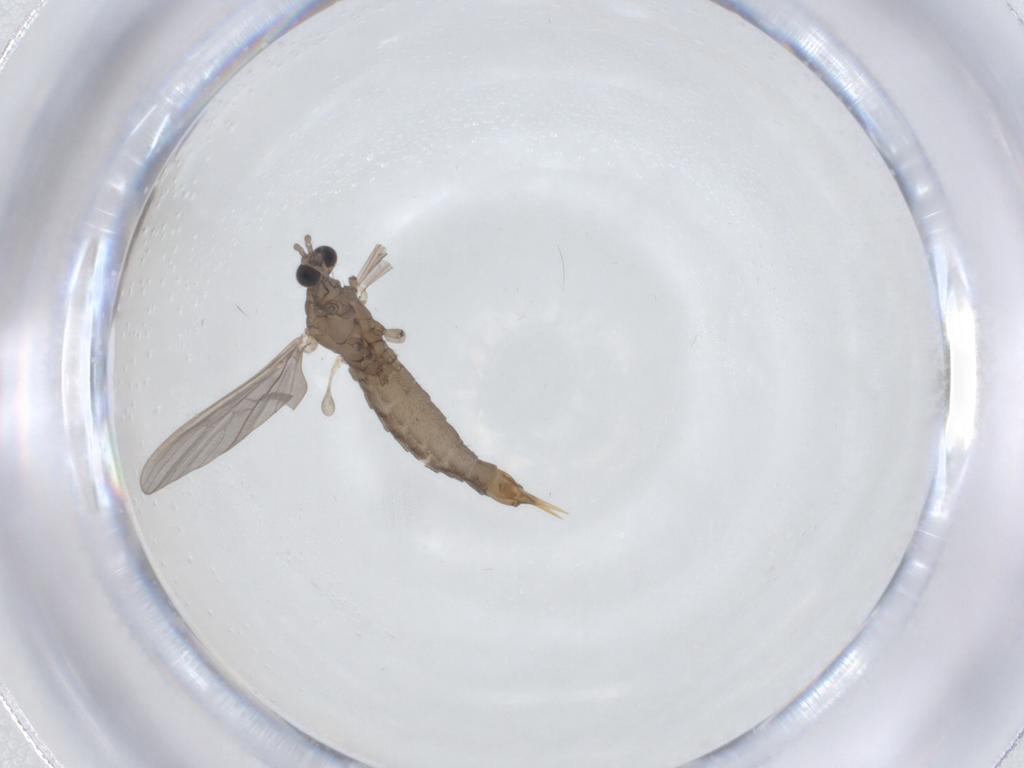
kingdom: Animalia
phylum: Arthropoda
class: Insecta
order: Diptera
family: Limoniidae
